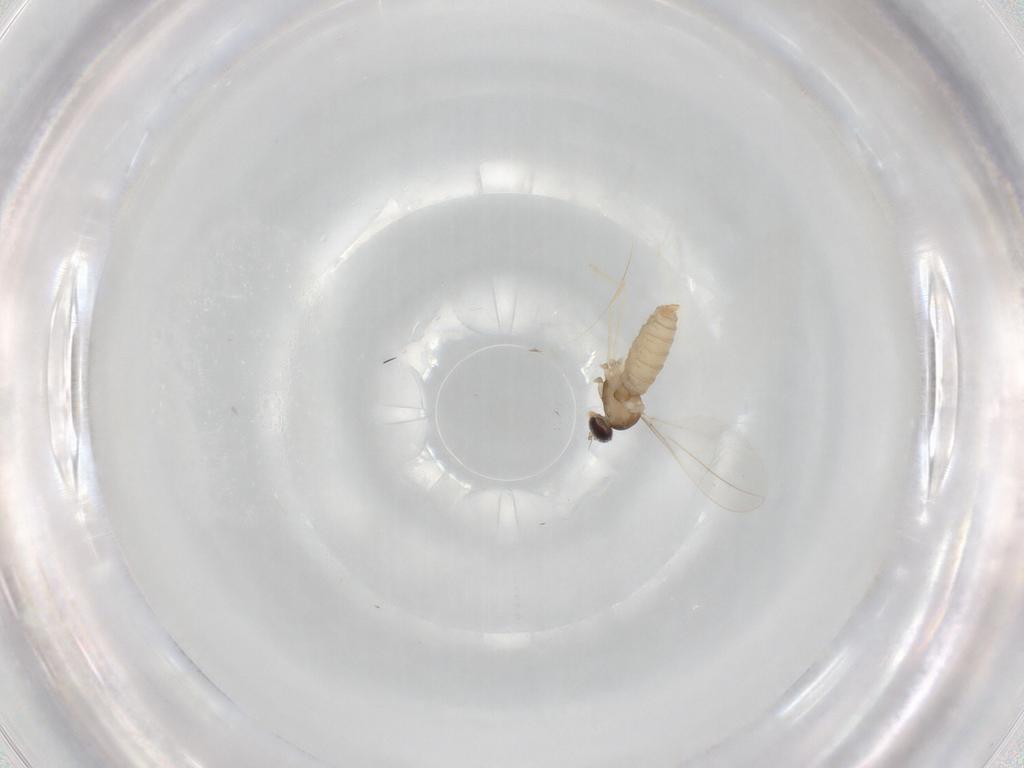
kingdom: Animalia
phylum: Arthropoda
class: Insecta
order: Diptera
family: Cecidomyiidae
